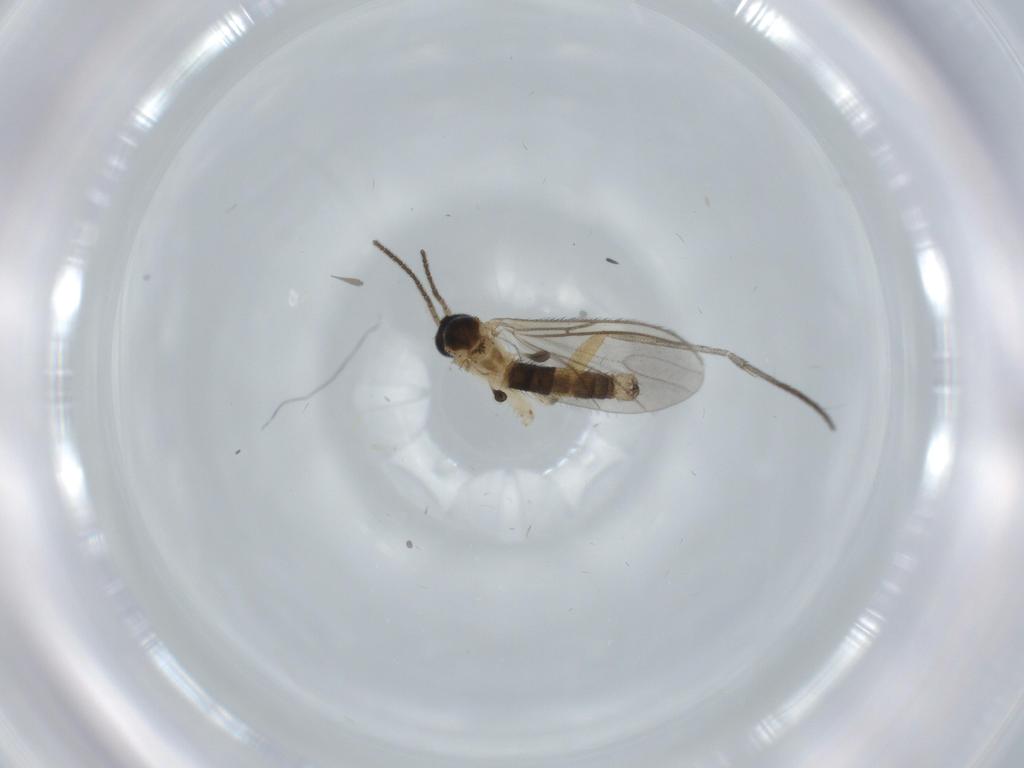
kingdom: Animalia
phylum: Arthropoda
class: Insecta
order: Diptera
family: Sciaridae
